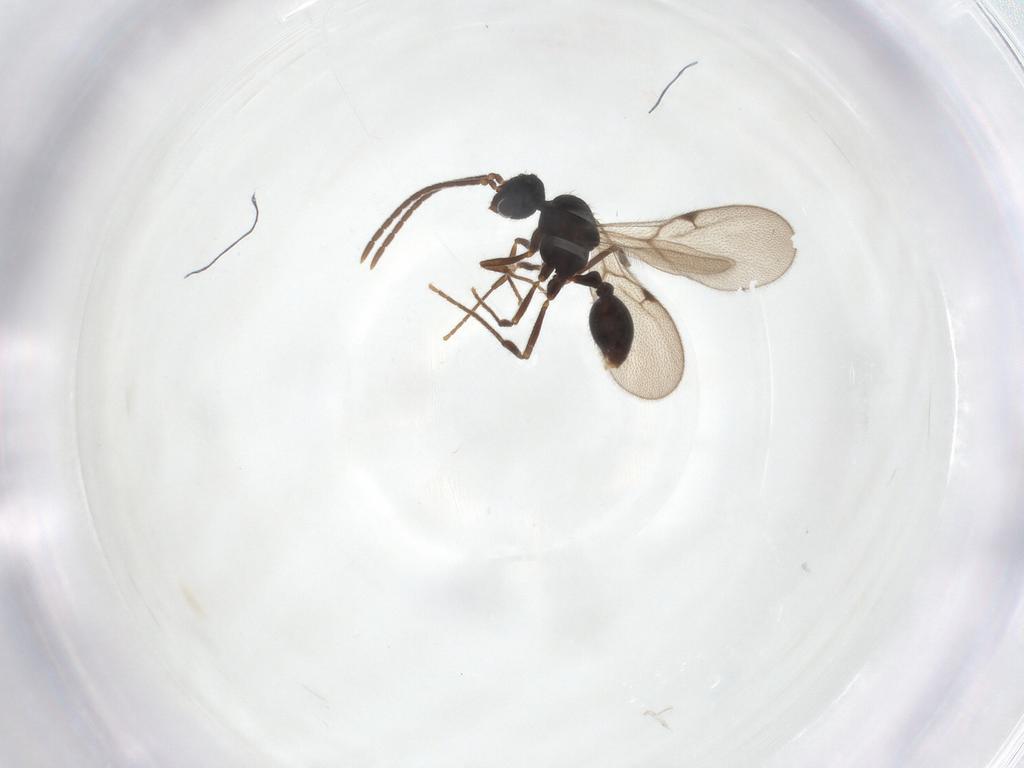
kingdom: Animalia
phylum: Arthropoda
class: Insecta
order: Hymenoptera
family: Formicidae
